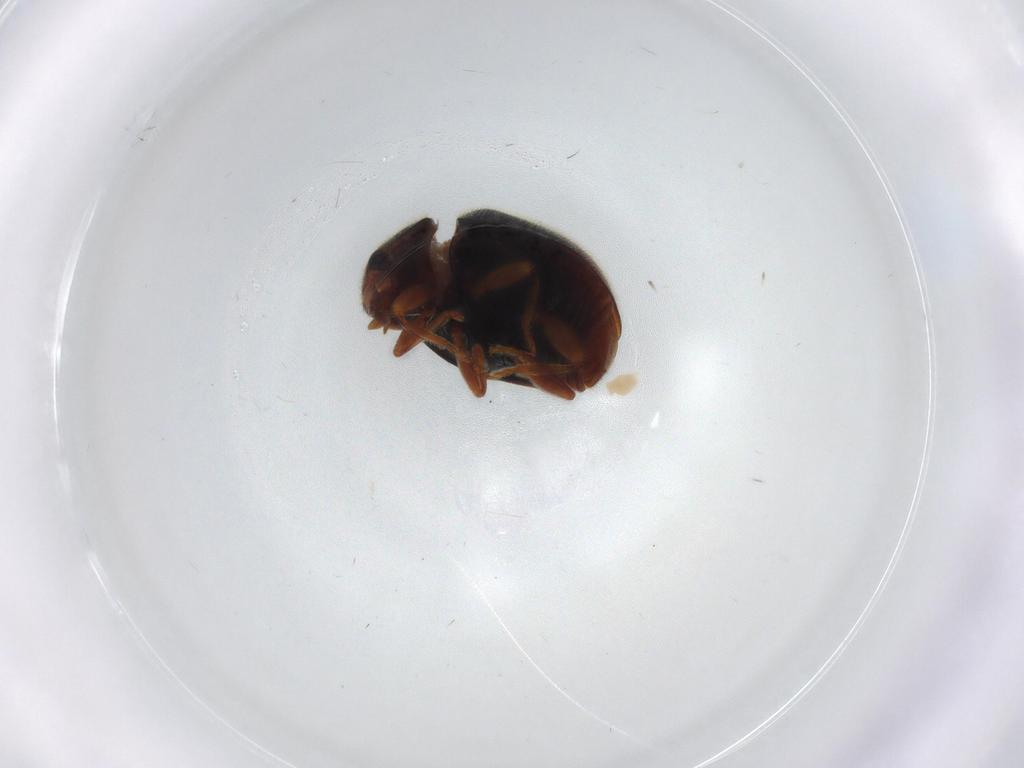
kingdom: Animalia
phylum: Arthropoda
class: Insecta
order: Coleoptera
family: Coccinellidae
